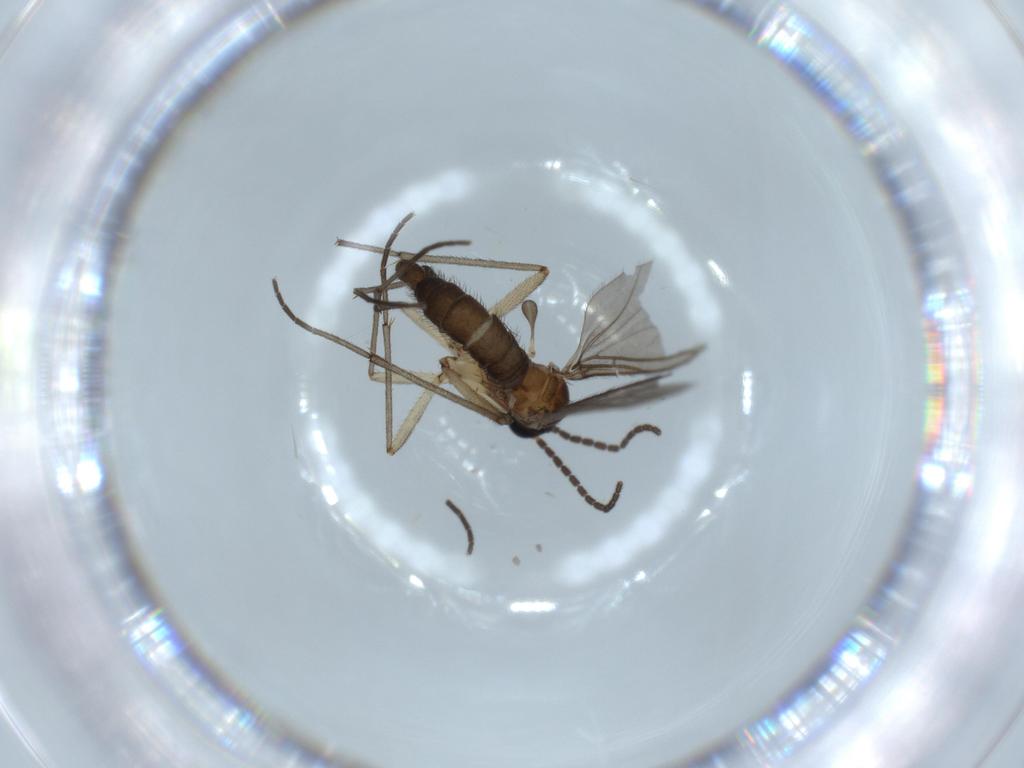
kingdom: Animalia
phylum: Arthropoda
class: Insecta
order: Diptera
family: Sciaridae
